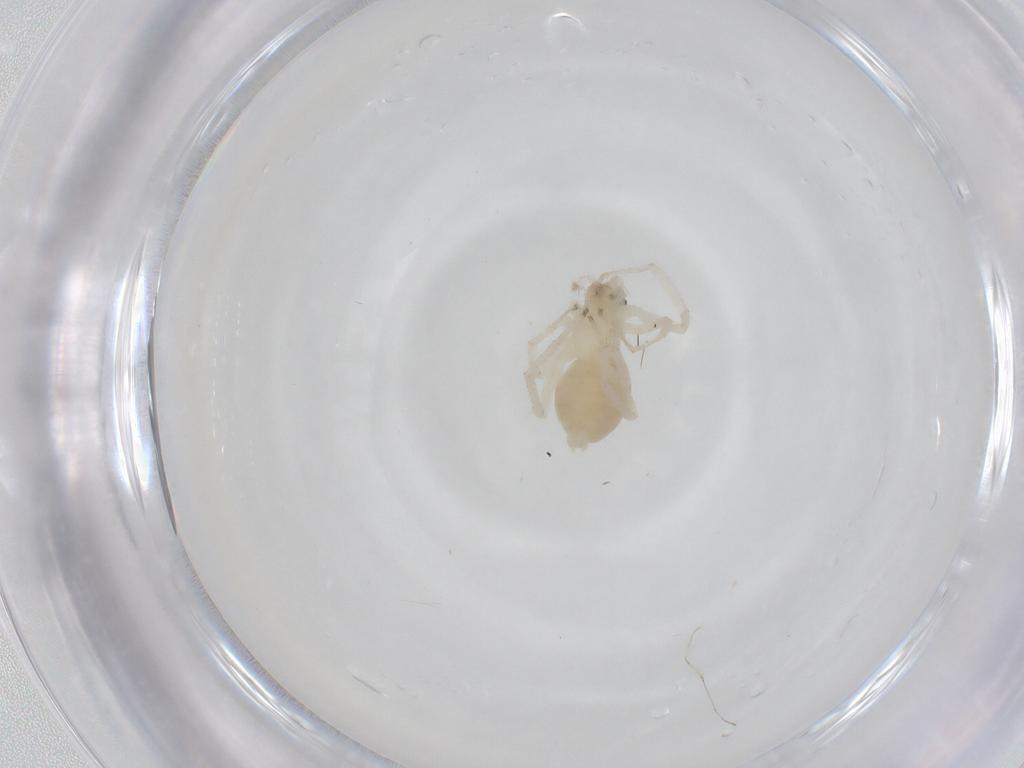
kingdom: Animalia
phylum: Arthropoda
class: Arachnida
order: Araneae
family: Anyphaenidae
